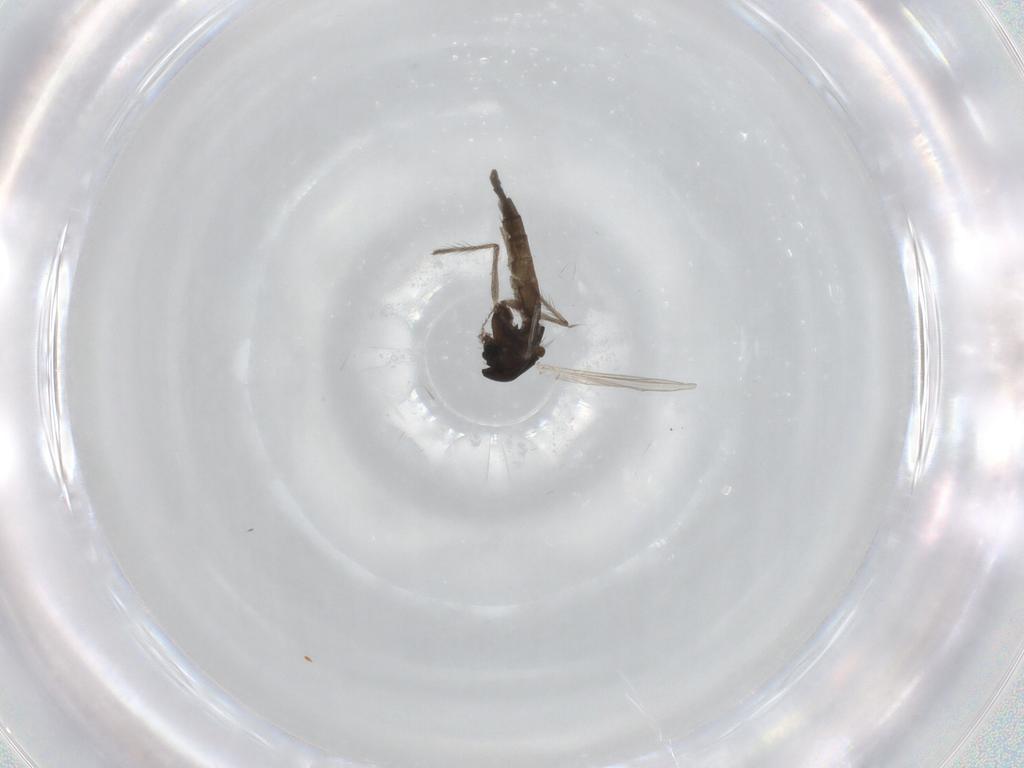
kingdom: Animalia
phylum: Arthropoda
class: Insecta
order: Diptera
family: Chironomidae
